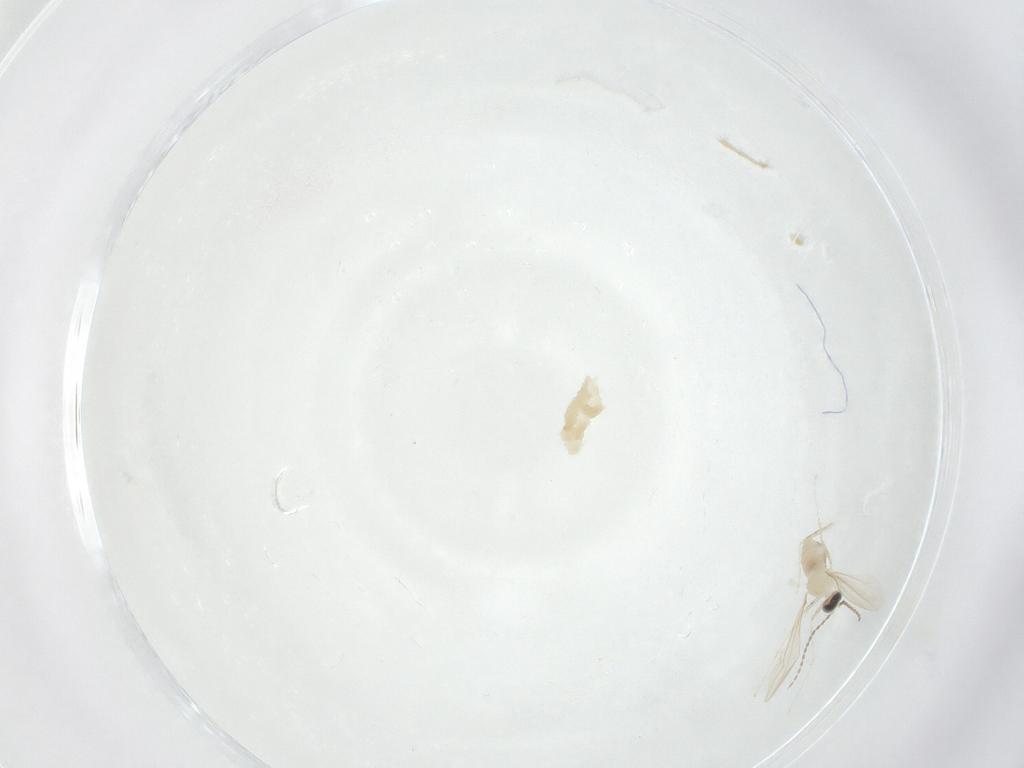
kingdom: Animalia
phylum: Arthropoda
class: Insecta
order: Diptera
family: Cecidomyiidae
